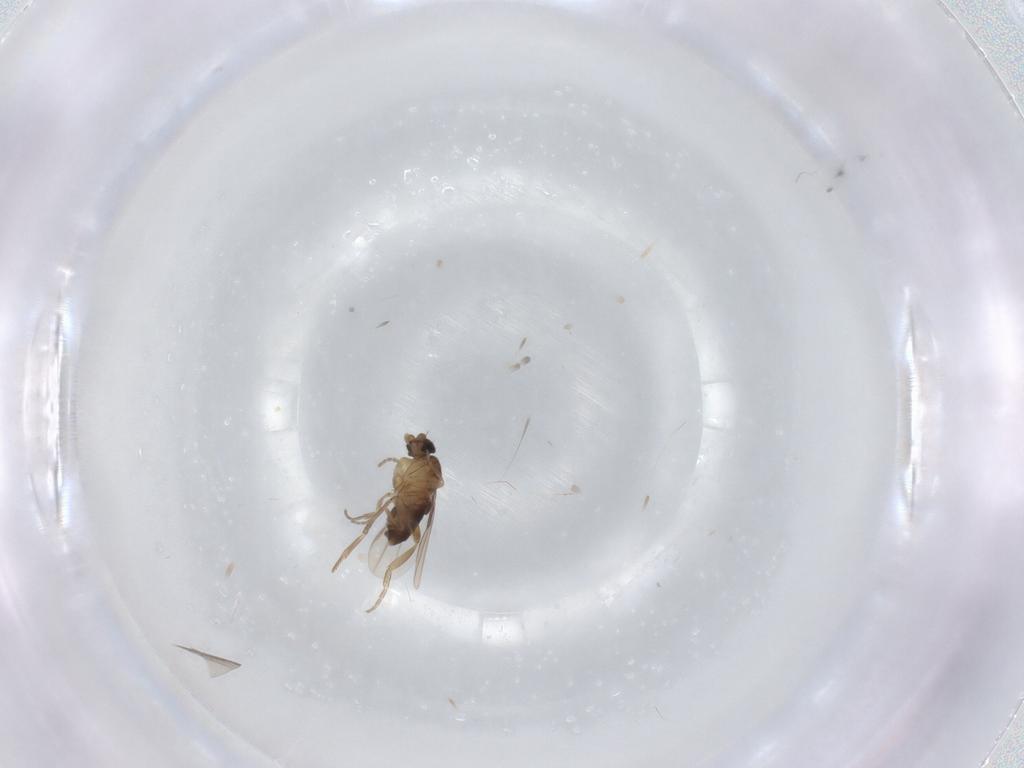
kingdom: Animalia
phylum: Arthropoda
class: Insecta
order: Diptera
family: Phoridae
